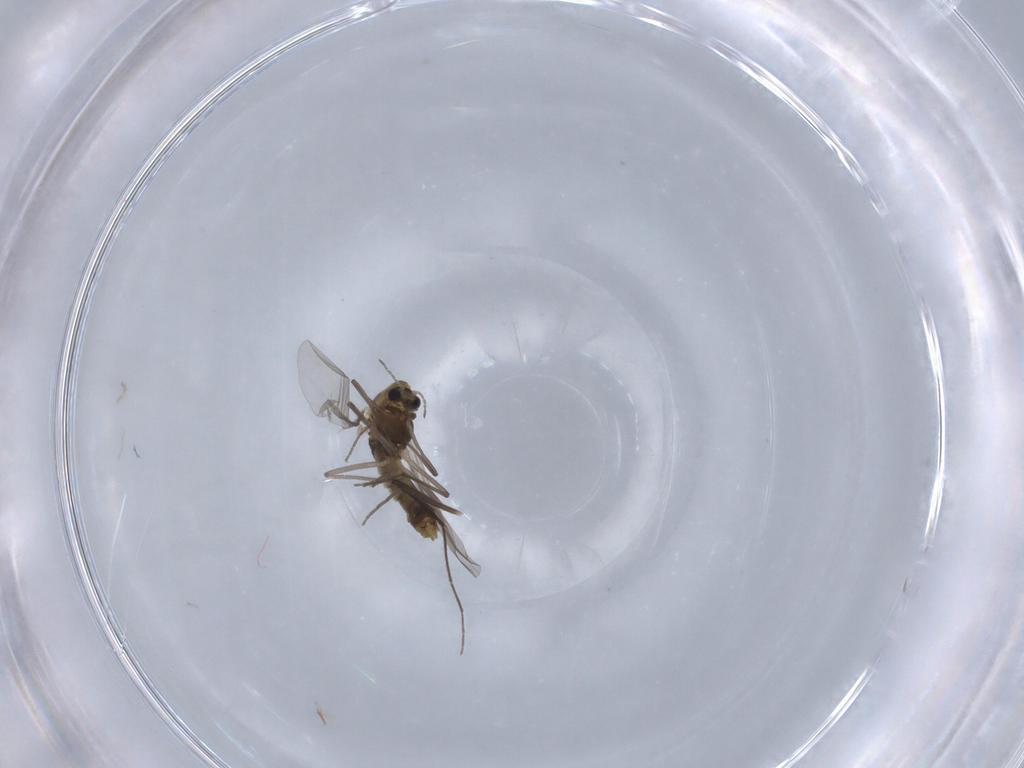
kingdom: Animalia
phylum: Arthropoda
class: Insecta
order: Diptera
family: Chironomidae
